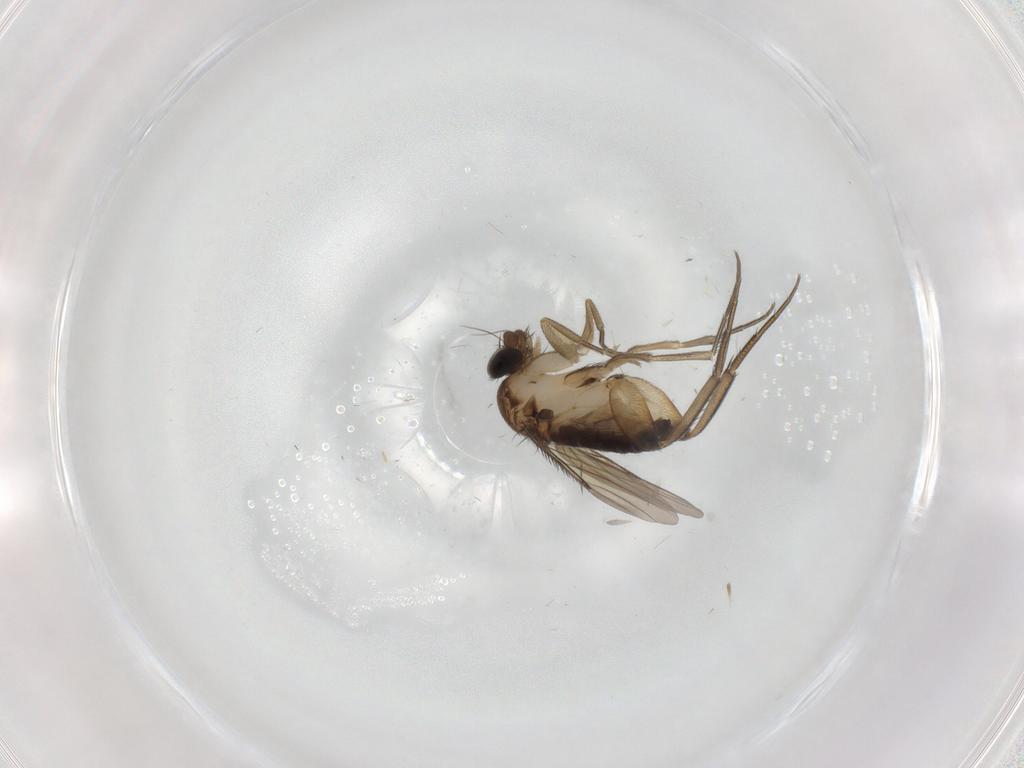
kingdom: Animalia
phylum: Arthropoda
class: Insecta
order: Diptera
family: Phoridae
